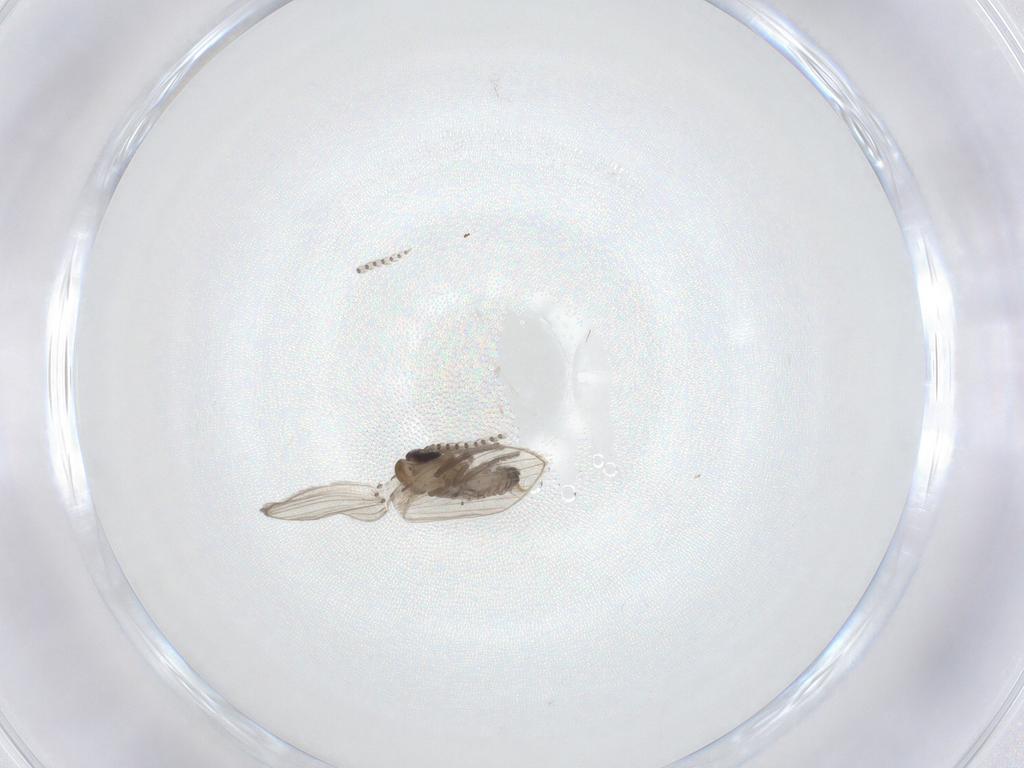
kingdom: Animalia
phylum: Arthropoda
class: Insecta
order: Diptera
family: Psychodidae
